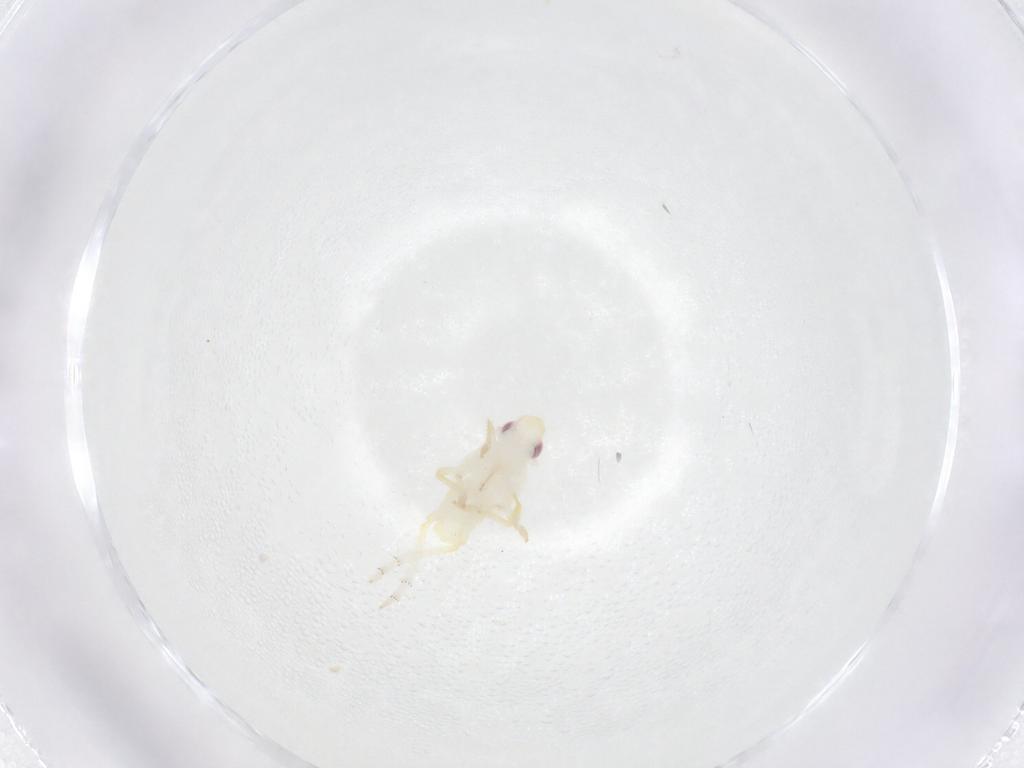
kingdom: Animalia
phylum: Arthropoda
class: Insecta
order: Hemiptera
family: Fulgoroidea_incertae_sedis
